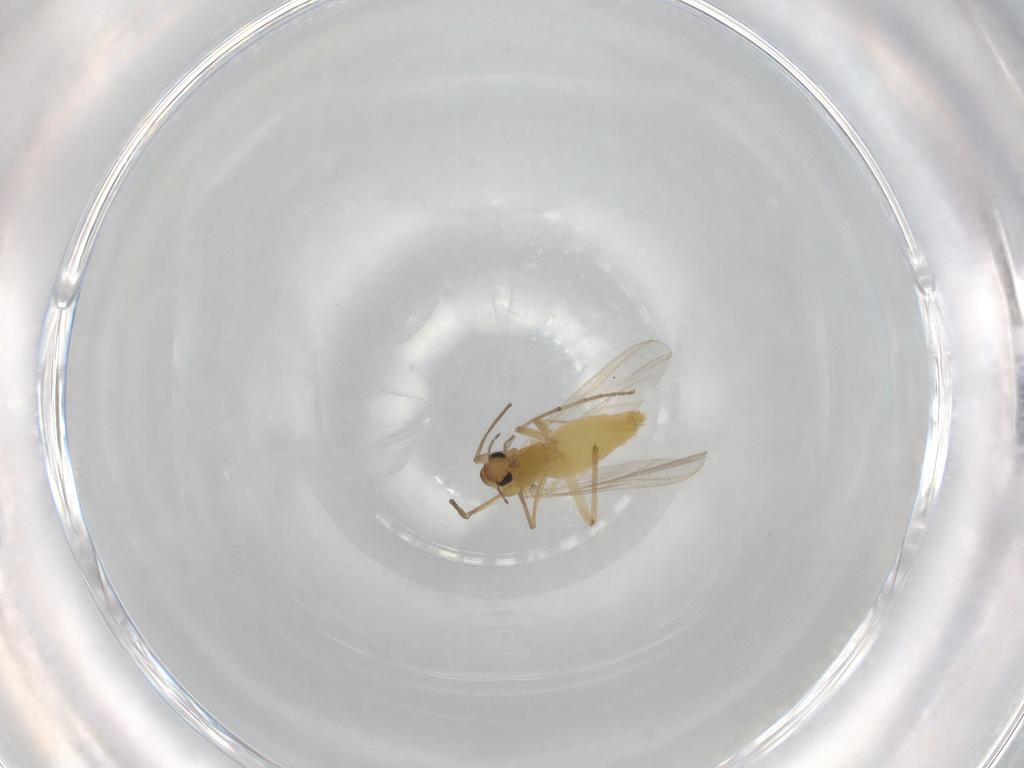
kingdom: Animalia
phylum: Arthropoda
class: Insecta
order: Diptera
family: Chironomidae
